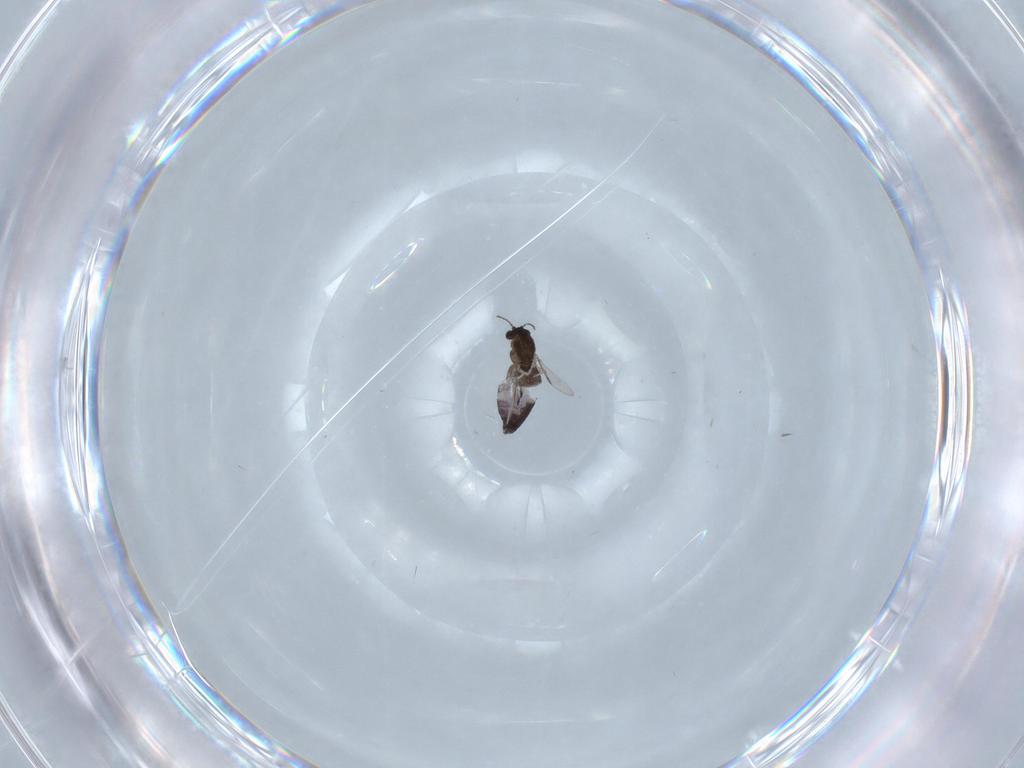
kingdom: Animalia
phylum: Arthropoda
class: Insecta
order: Diptera
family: Chironomidae
